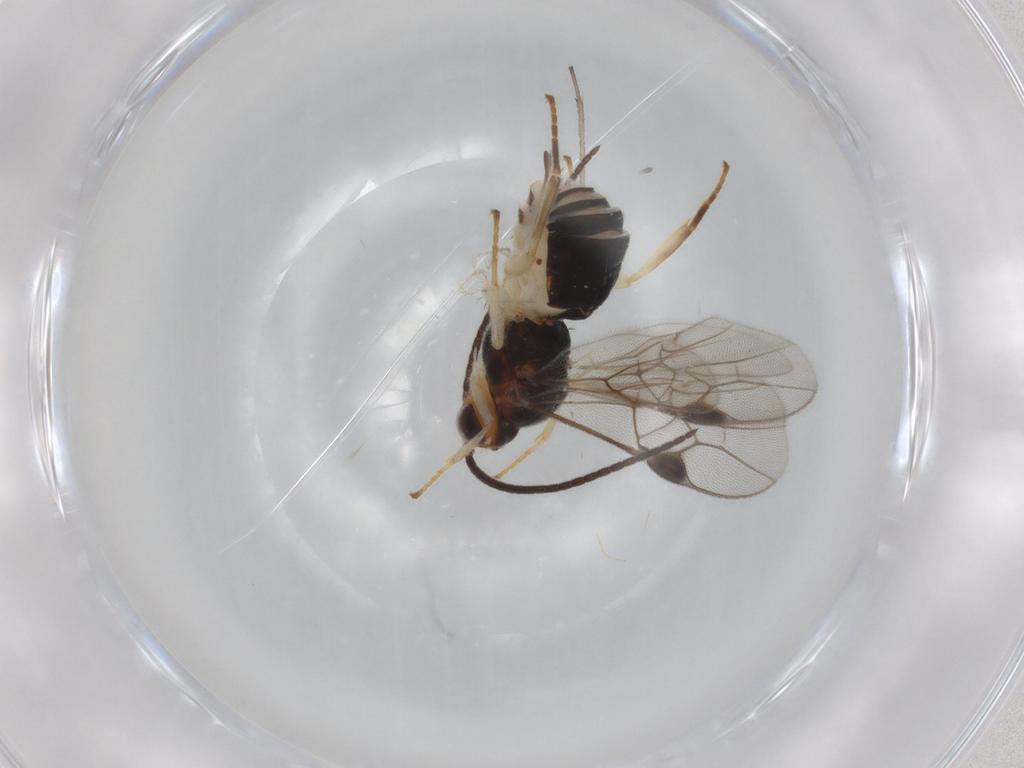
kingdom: Animalia
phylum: Arthropoda
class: Insecta
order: Hymenoptera
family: Braconidae
